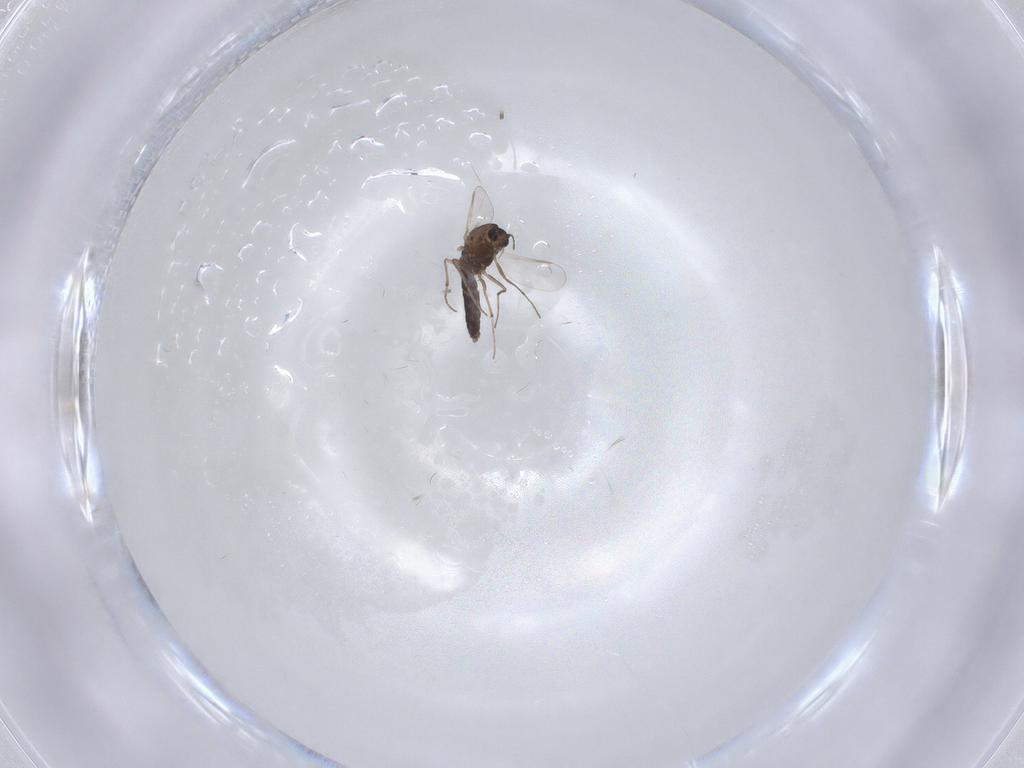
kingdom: Animalia
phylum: Arthropoda
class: Insecta
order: Diptera
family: Chironomidae
